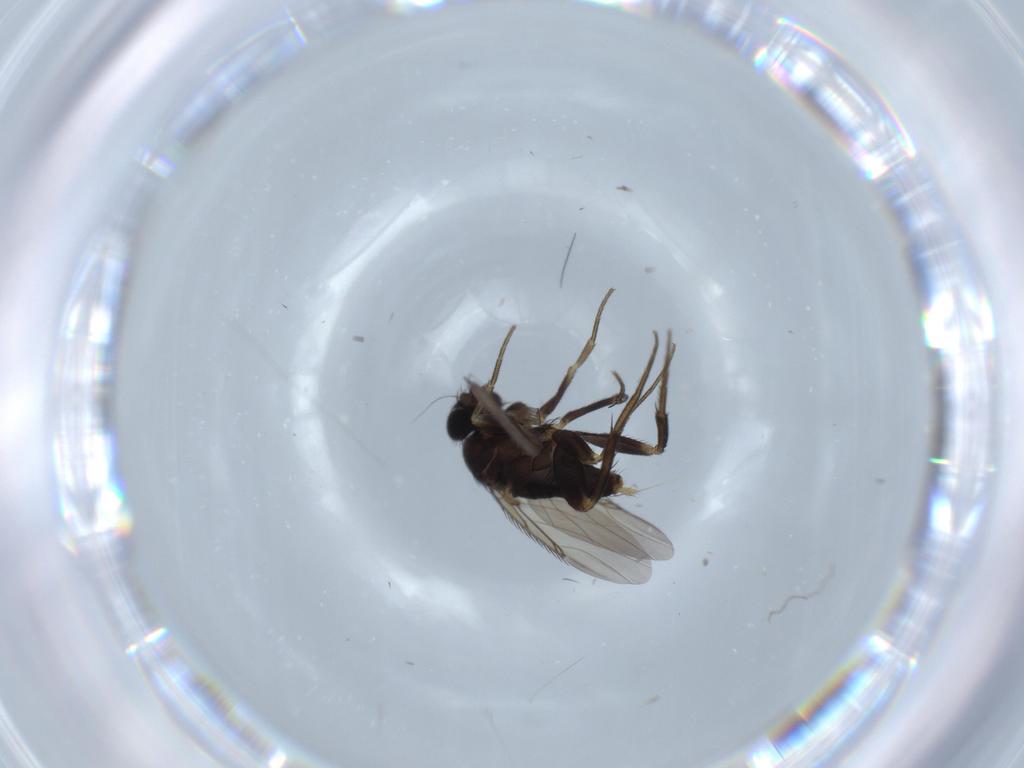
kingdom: Animalia
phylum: Arthropoda
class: Insecta
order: Diptera
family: Phoridae
